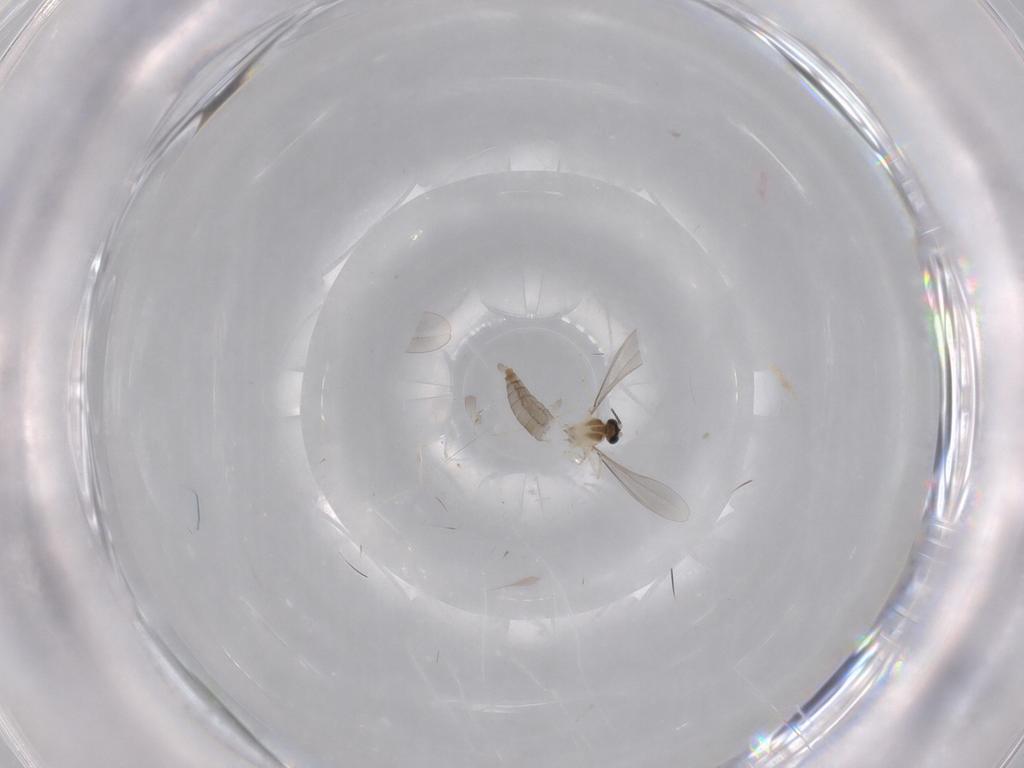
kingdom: Animalia
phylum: Arthropoda
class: Insecta
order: Diptera
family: Cecidomyiidae
